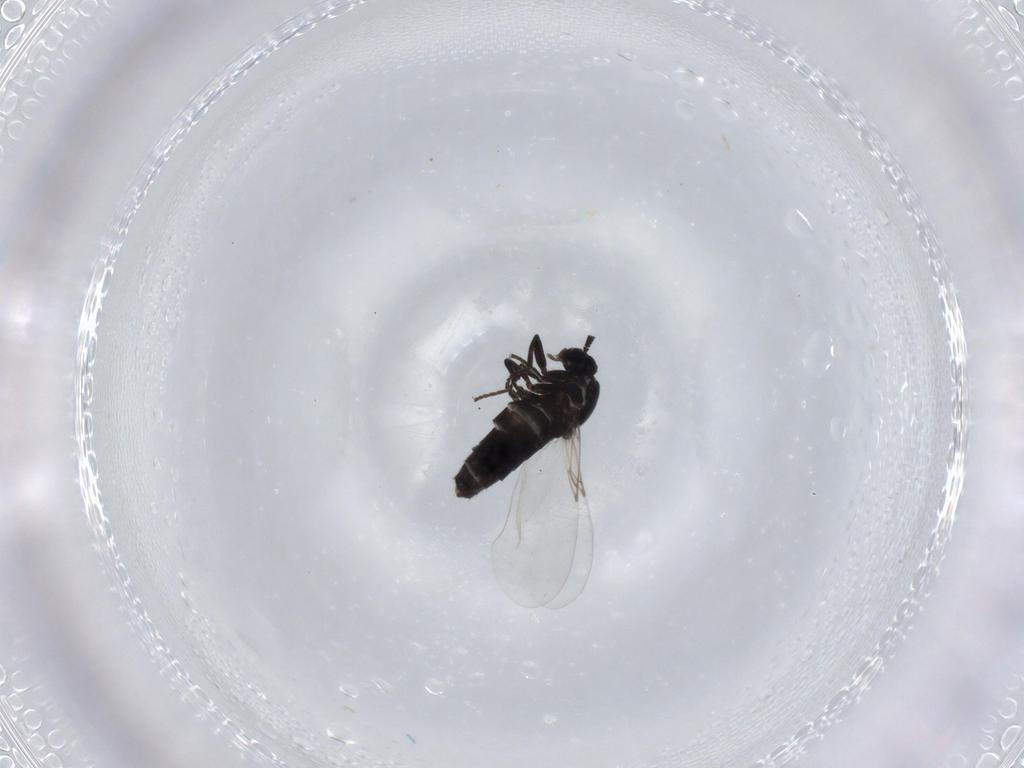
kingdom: Animalia
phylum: Arthropoda
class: Insecta
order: Diptera
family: Scatopsidae
